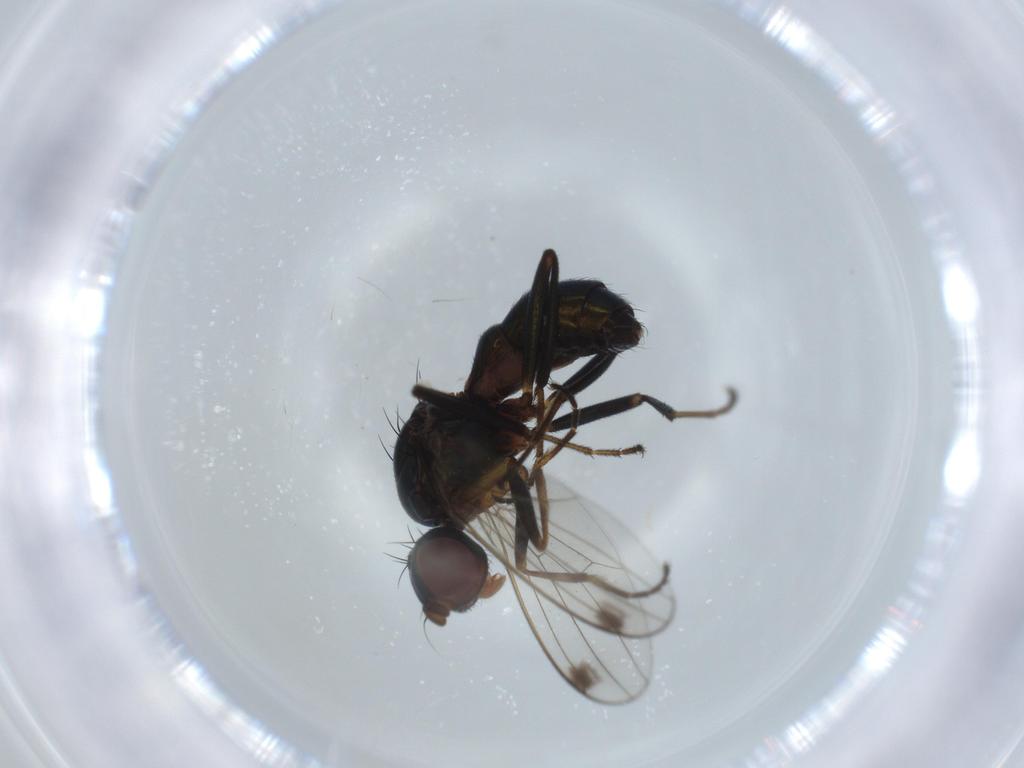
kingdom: Animalia
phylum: Arthropoda
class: Insecta
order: Diptera
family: Sepsidae
